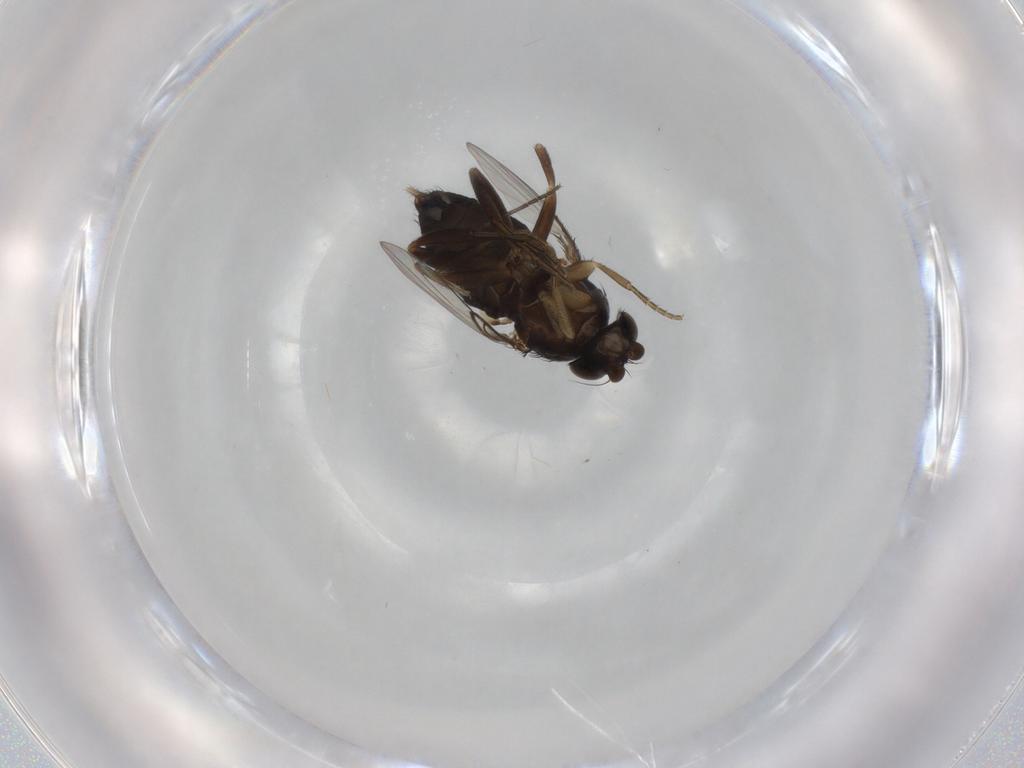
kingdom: Animalia
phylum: Arthropoda
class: Insecta
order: Diptera
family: Phoridae
